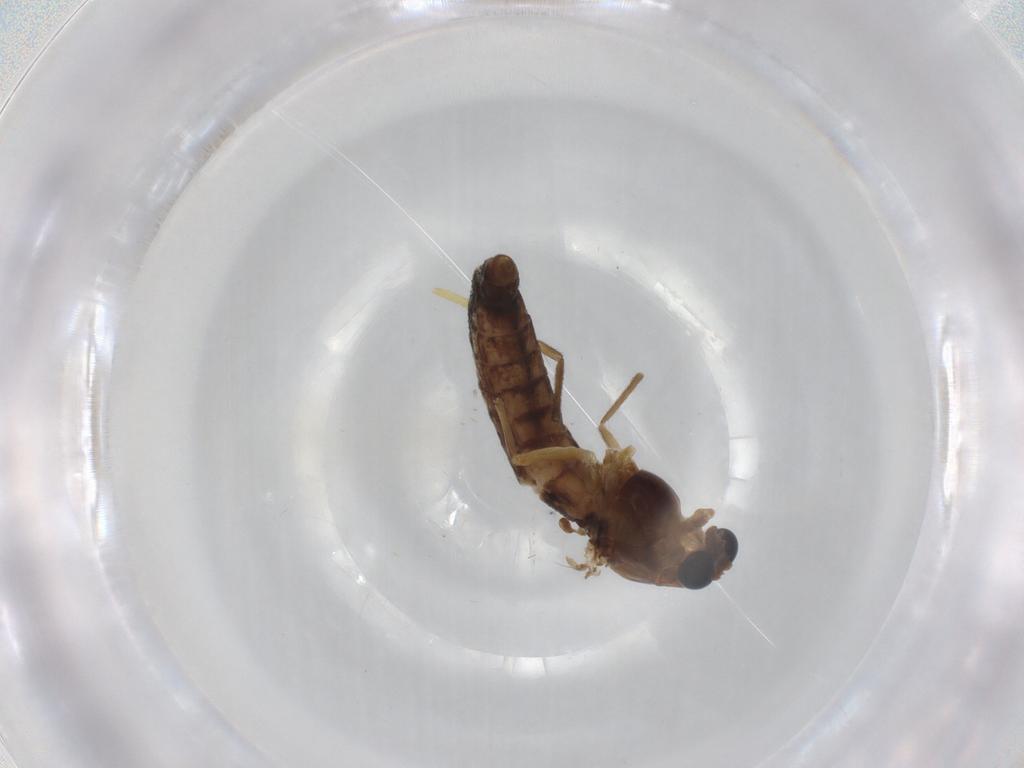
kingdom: Animalia
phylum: Arthropoda
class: Insecta
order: Diptera
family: Chironomidae
